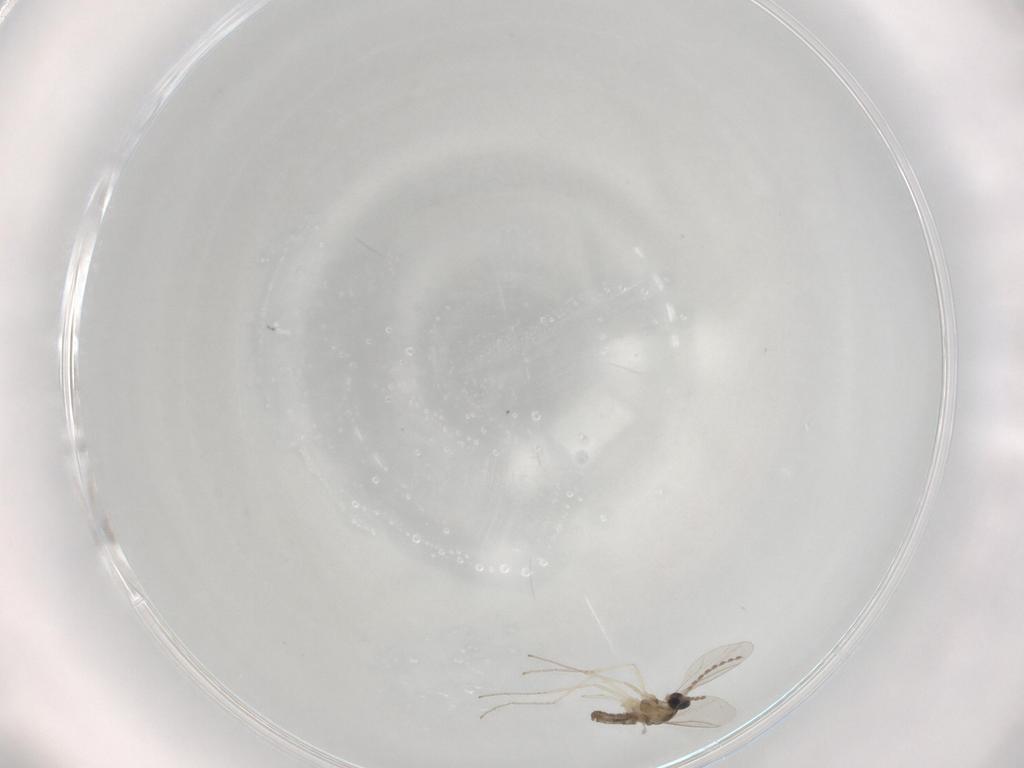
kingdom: Animalia
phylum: Arthropoda
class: Insecta
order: Diptera
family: Cecidomyiidae
